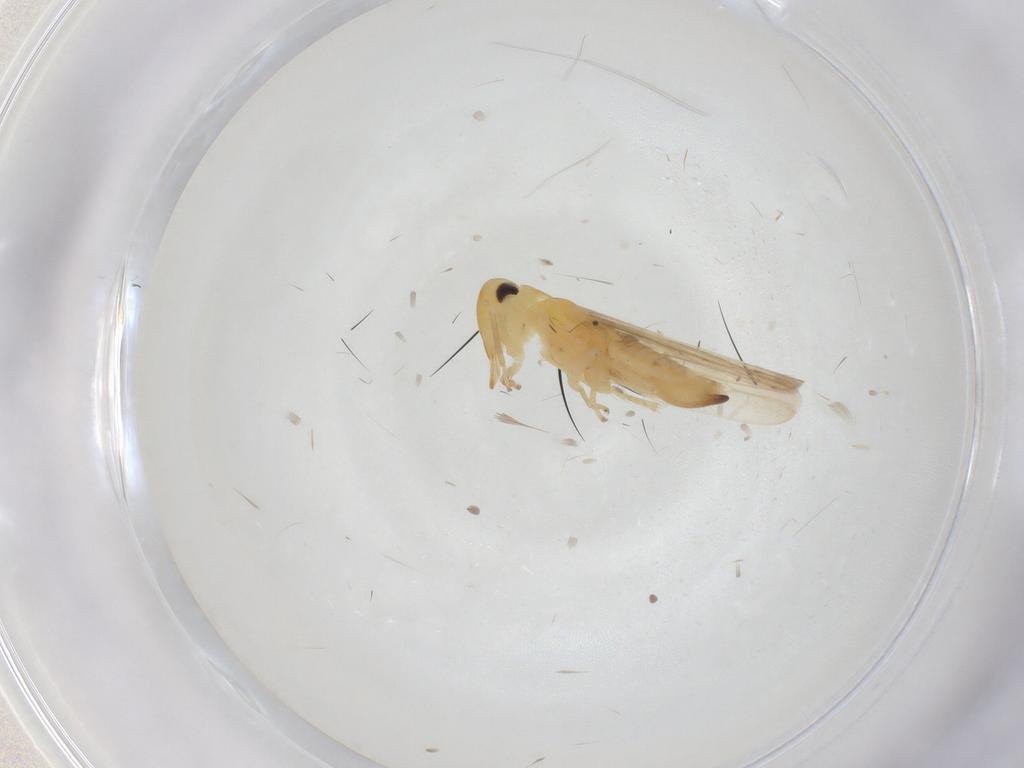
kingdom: Animalia
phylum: Arthropoda
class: Insecta
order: Hemiptera
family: Cicadellidae
